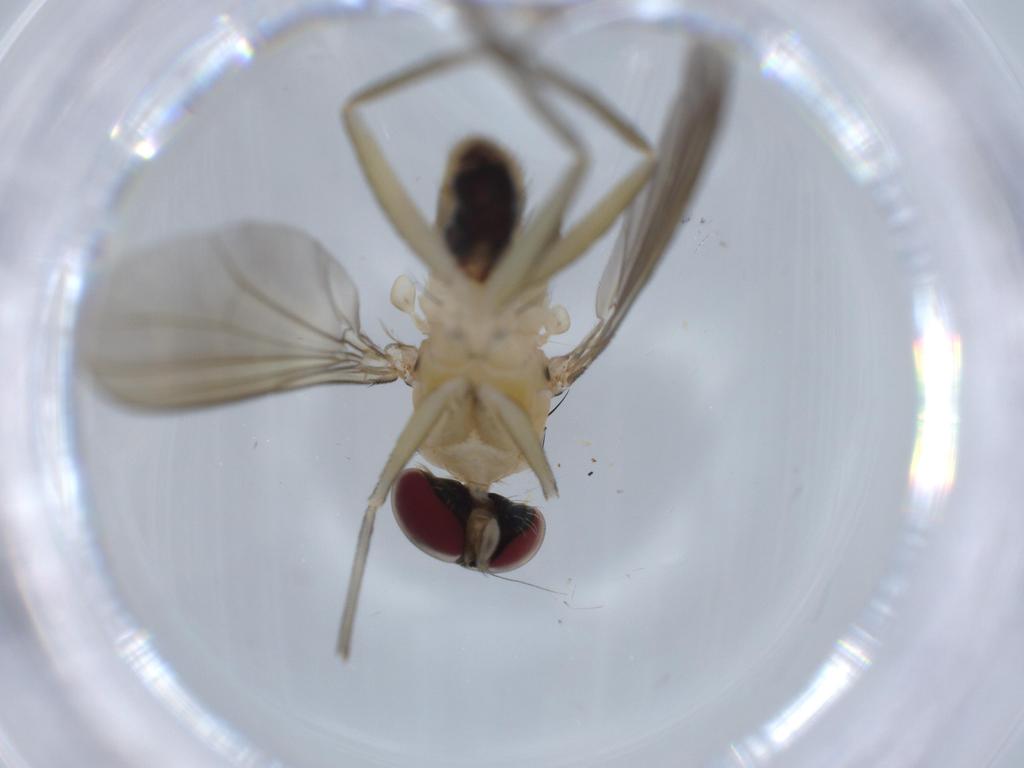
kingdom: Animalia
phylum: Arthropoda
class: Insecta
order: Diptera
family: Dolichopodidae
